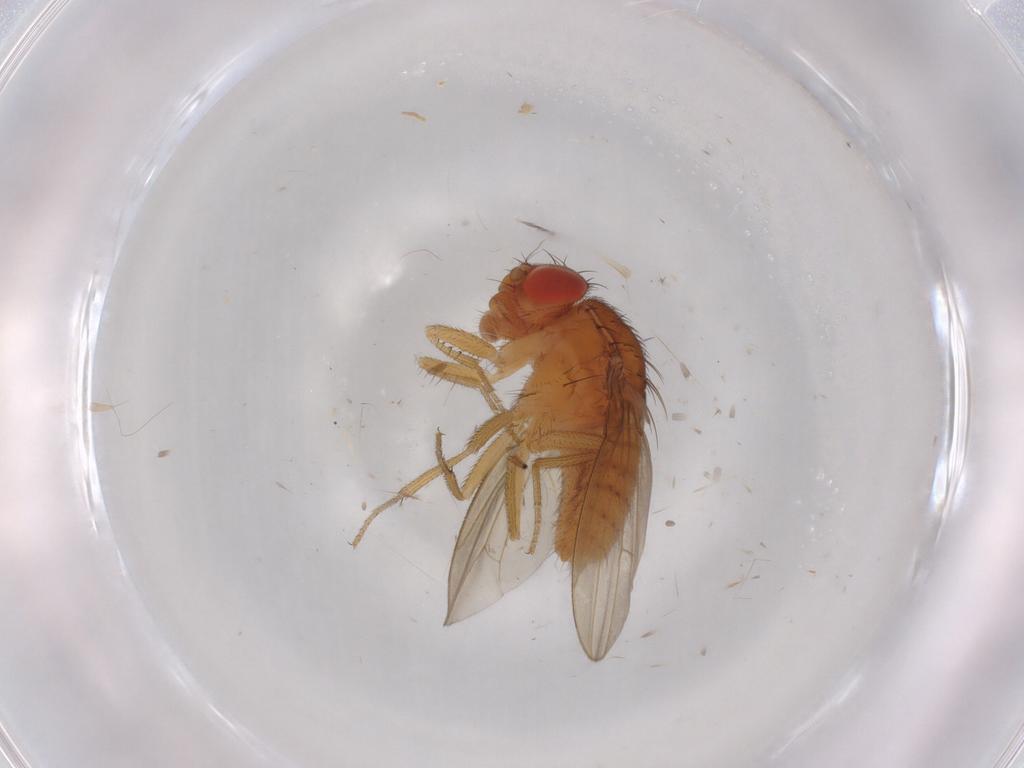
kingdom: Animalia
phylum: Arthropoda
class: Insecta
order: Diptera
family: Drosophilidae
